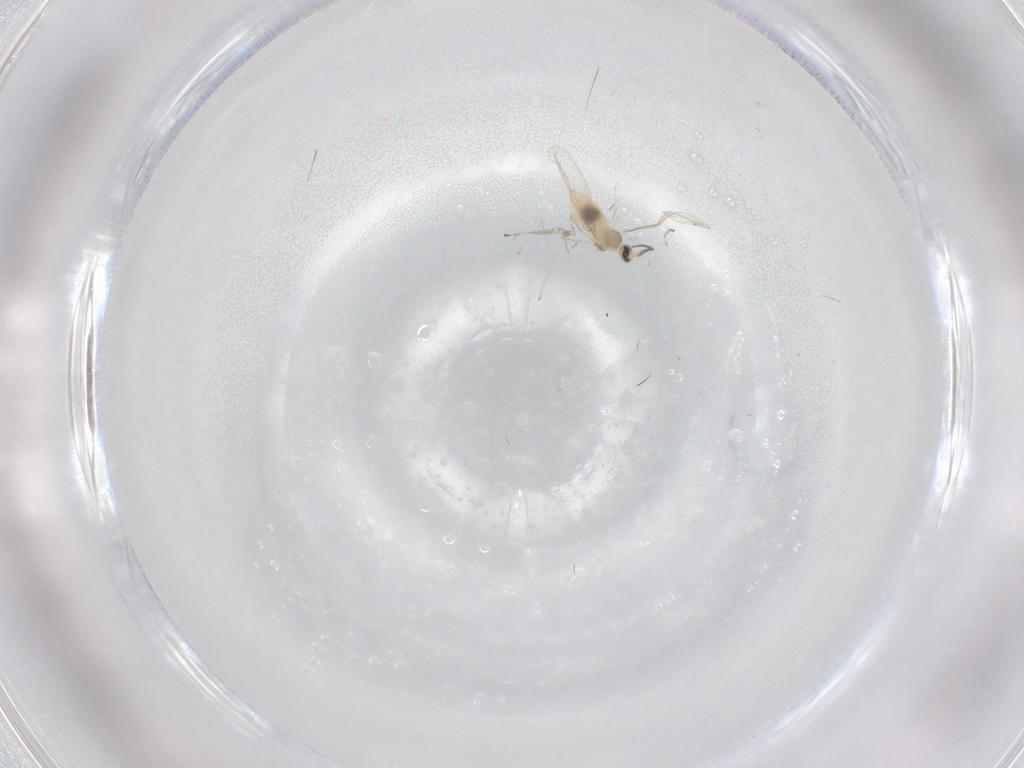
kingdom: Animalia
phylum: Arthropoda
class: Insecta
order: Diptera
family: Cecidomyiidae
